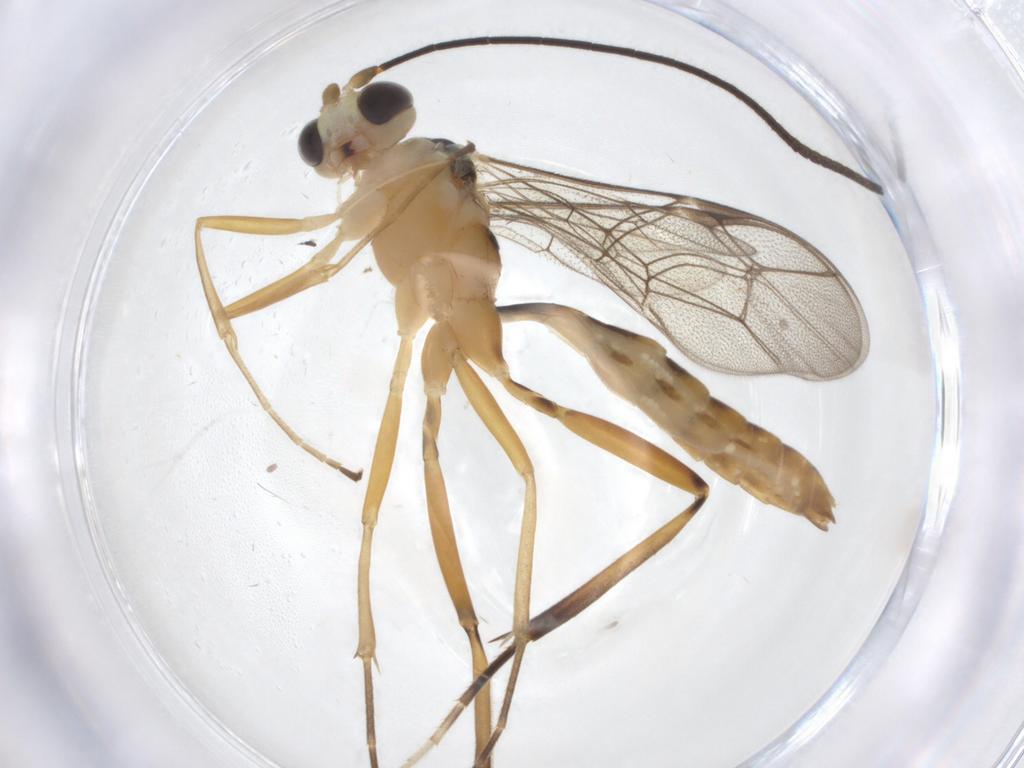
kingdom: Animalia
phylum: Arthropoda
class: Insecta
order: Hymenoptera
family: Ichneumonidae
